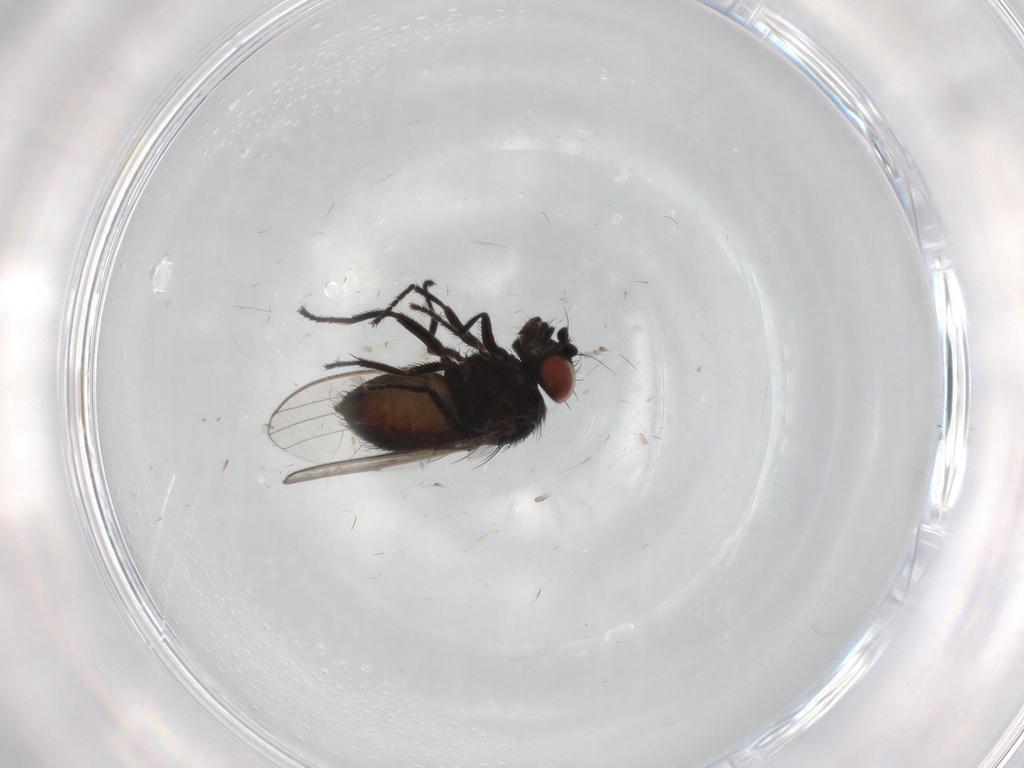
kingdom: Animalia
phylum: Arthropoda
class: Insecta
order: Diptera
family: Milichiidae
